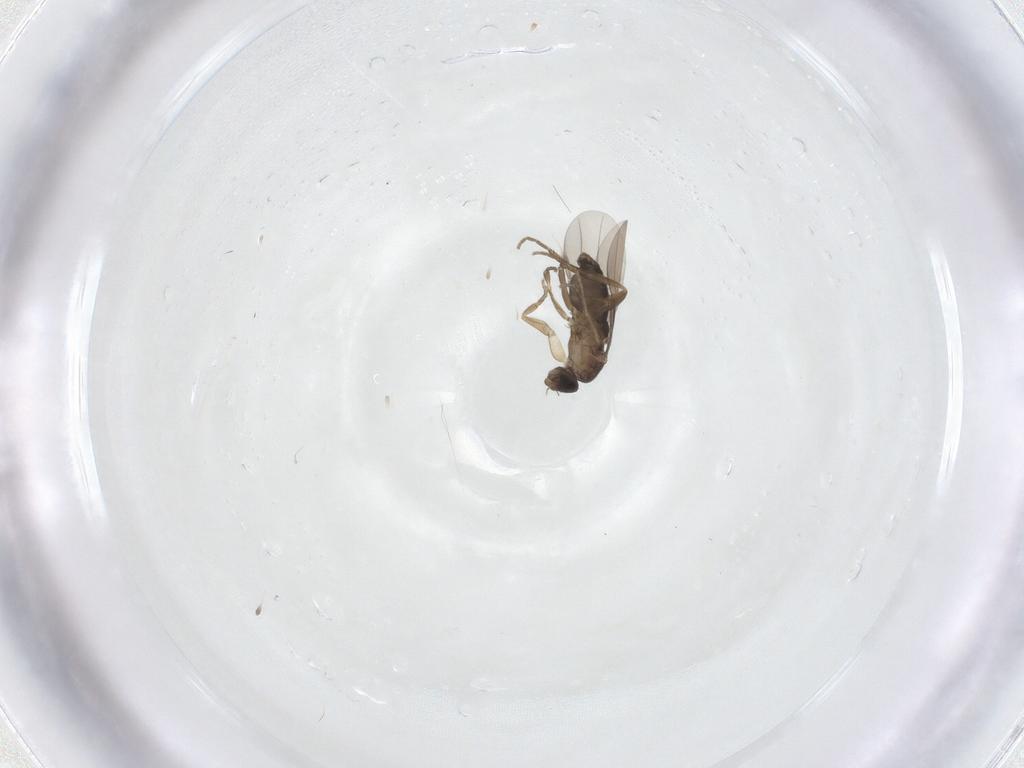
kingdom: Animalia
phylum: Arthropoda
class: Insecta
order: Diptera
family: Phoridae
